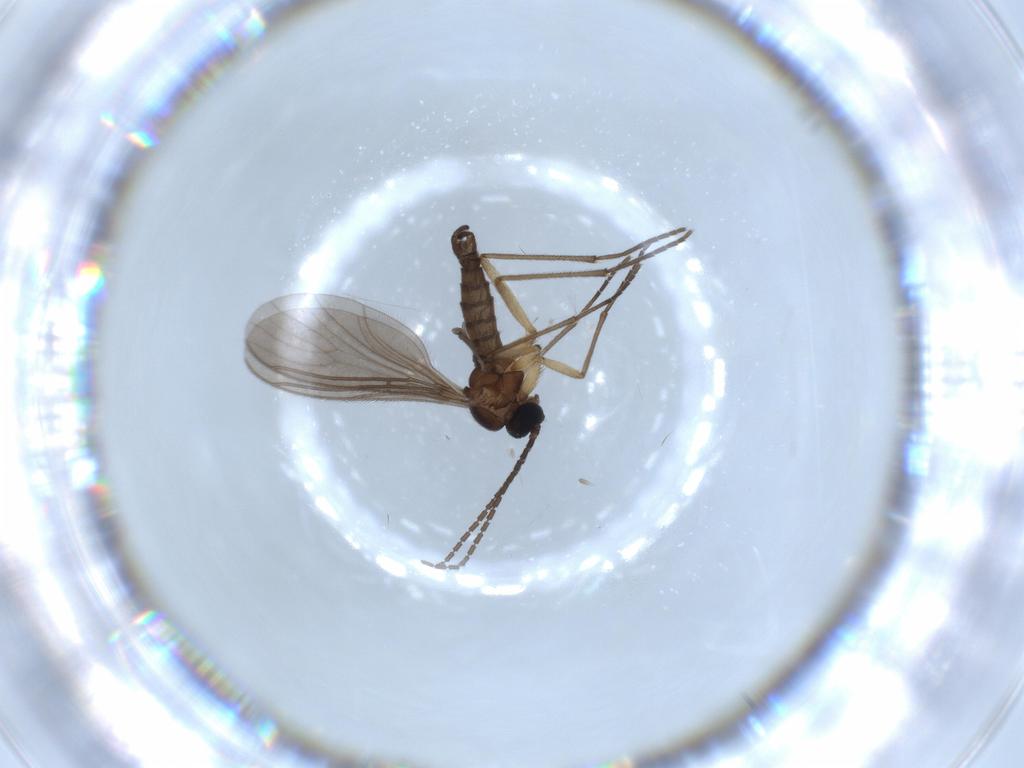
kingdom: Animalia
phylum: Arthropoda
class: Insecta
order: Diptera
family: Sciaridae
